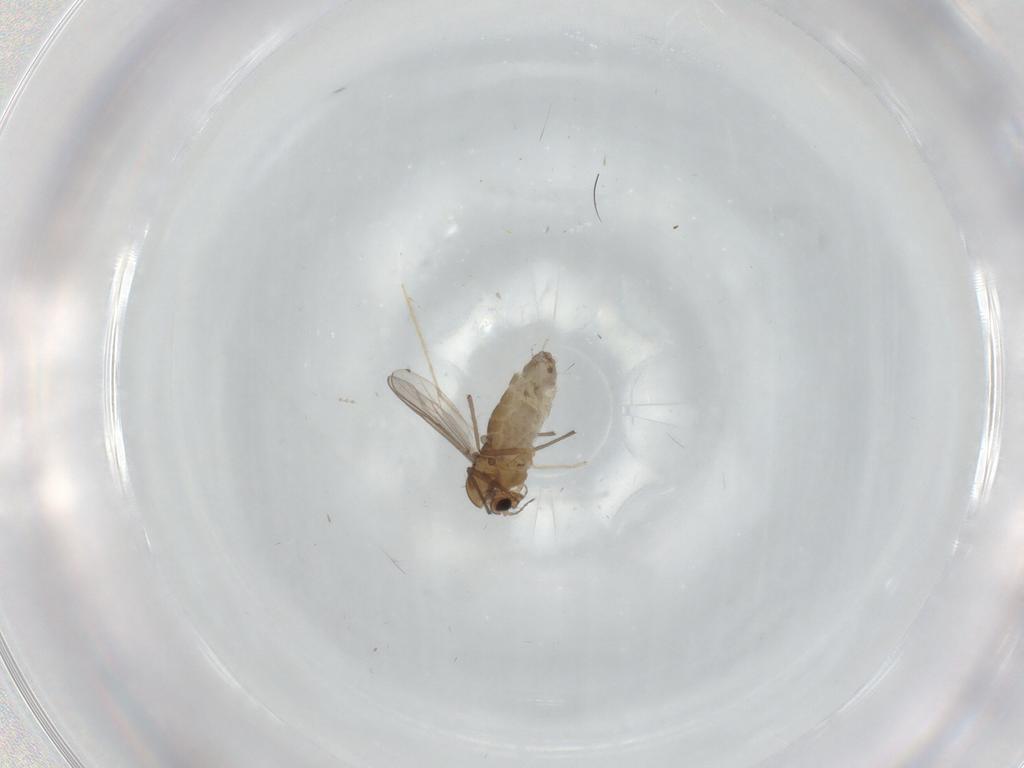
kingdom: Animalia
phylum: Arthropoda
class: Insecta
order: Diptera
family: Chironomidae
